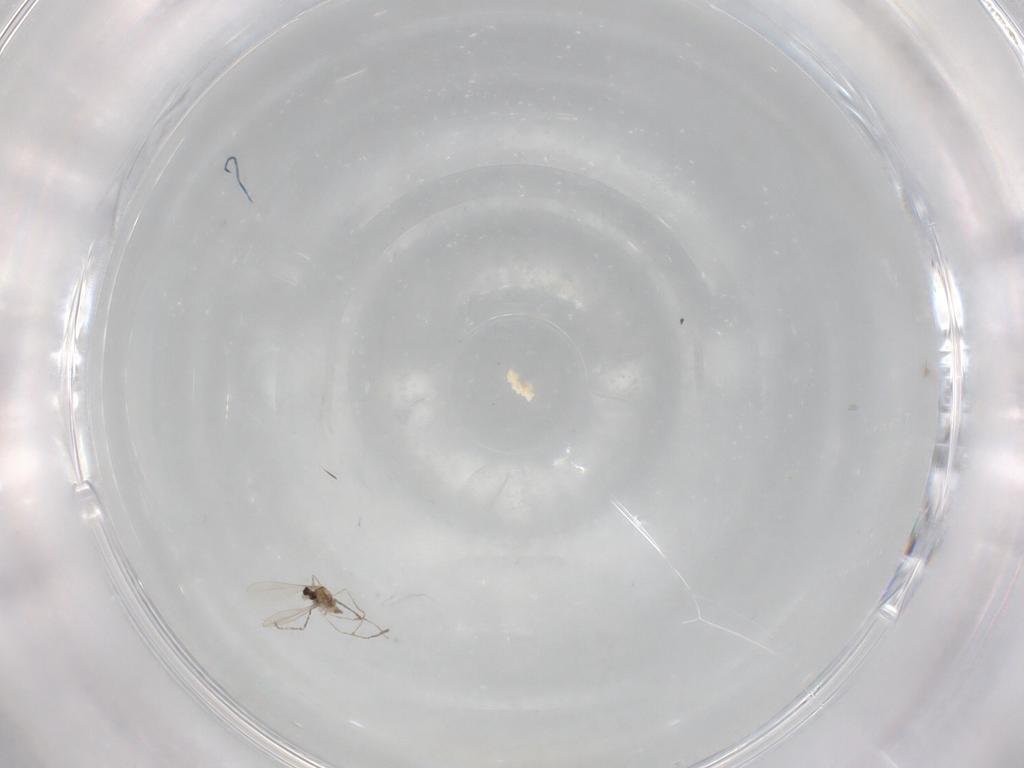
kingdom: Animalia
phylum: Arthropoda
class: Insecta
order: Diptera
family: Cecidomyiidae
